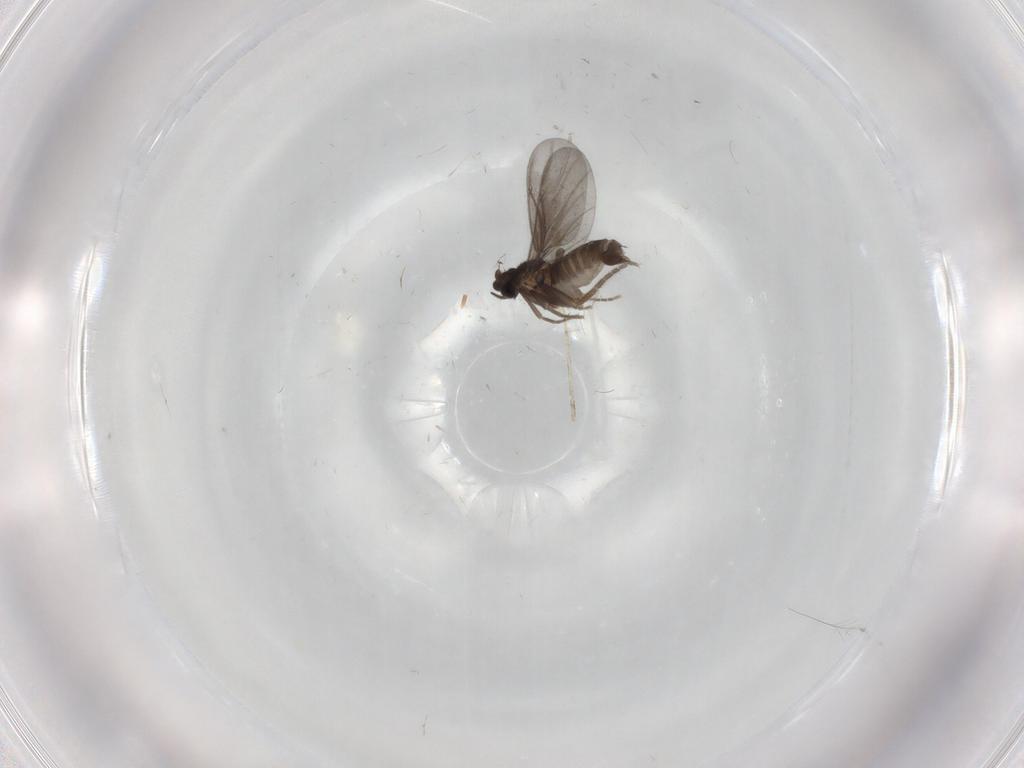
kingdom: Animalia
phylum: Arthropoda
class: Insecta
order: Diptera
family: Phoridae
